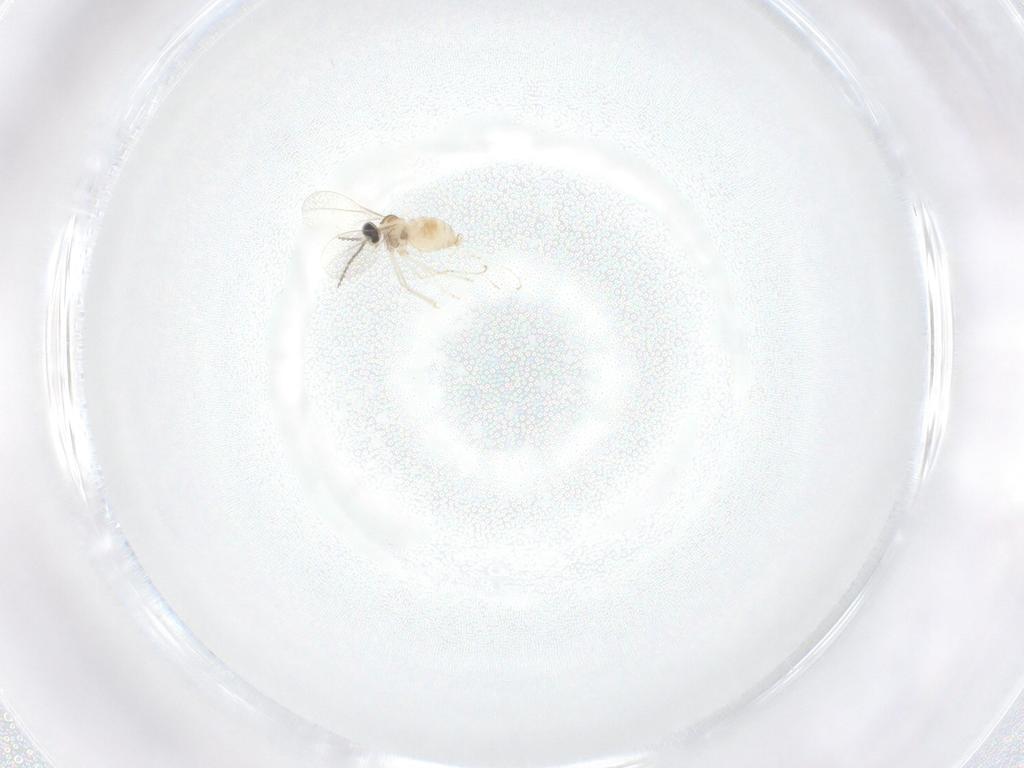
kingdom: Animalia
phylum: Arthropoda
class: Insecta
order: Diptera
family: Cecidomyiidae
